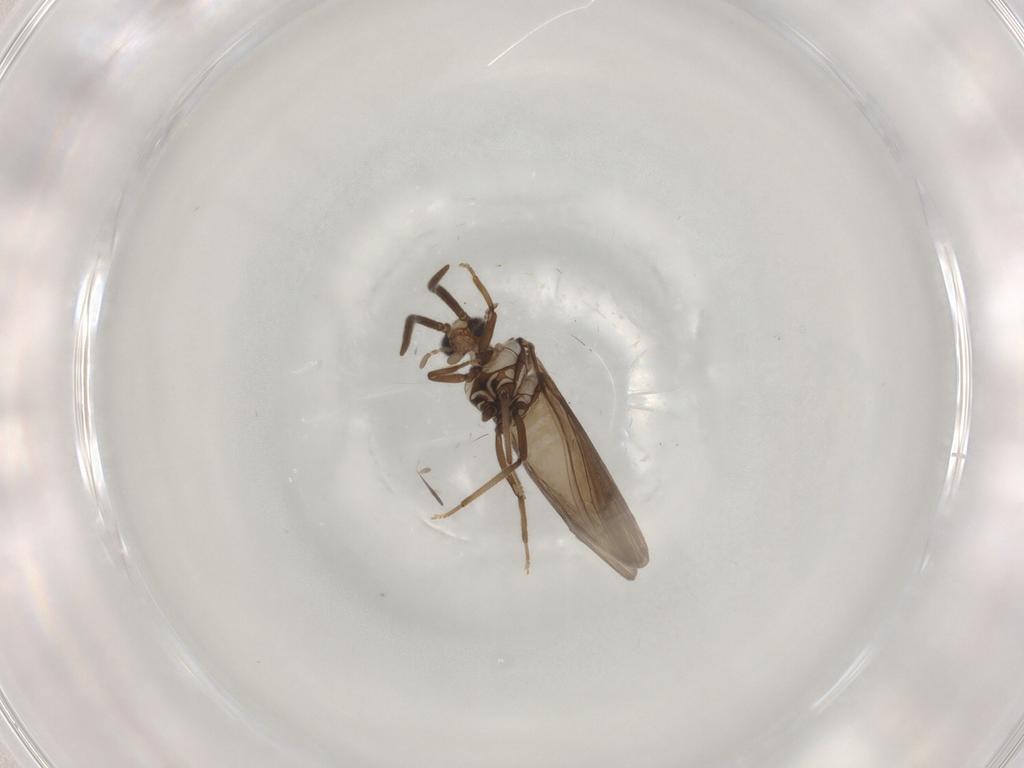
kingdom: Animalia
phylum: Arthropoda
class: Insecta
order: Neuroptera
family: Coniopterygidae
